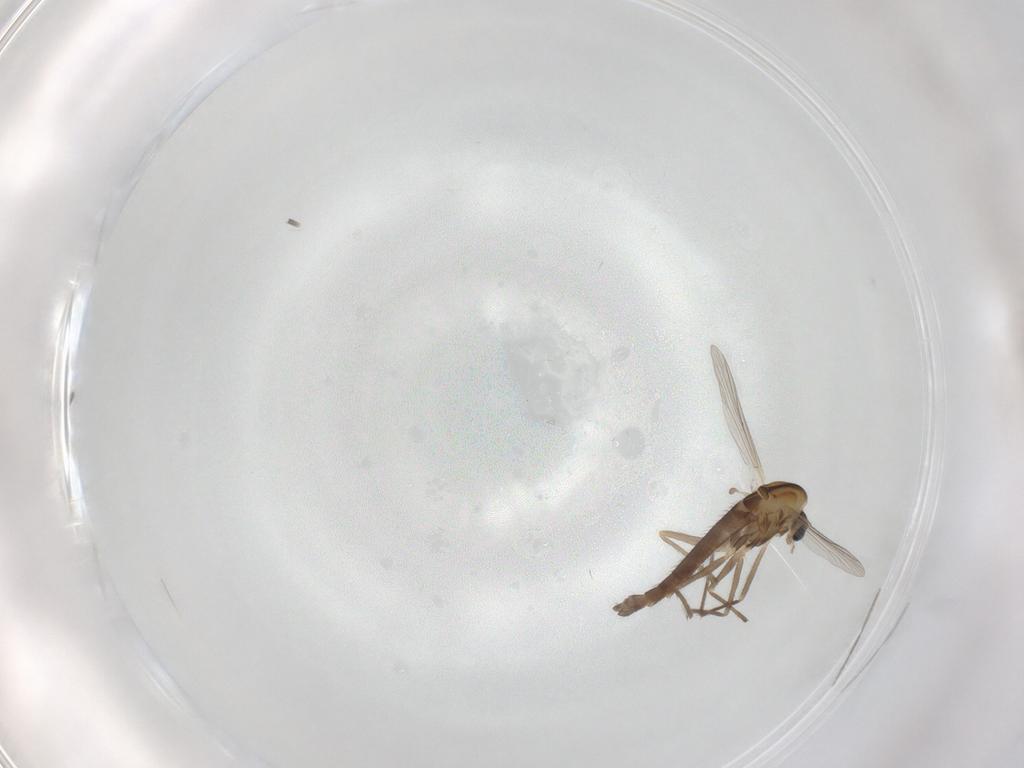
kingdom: Animalia
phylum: Arthropoda
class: Insecta
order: Diptera
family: Chironomidae
